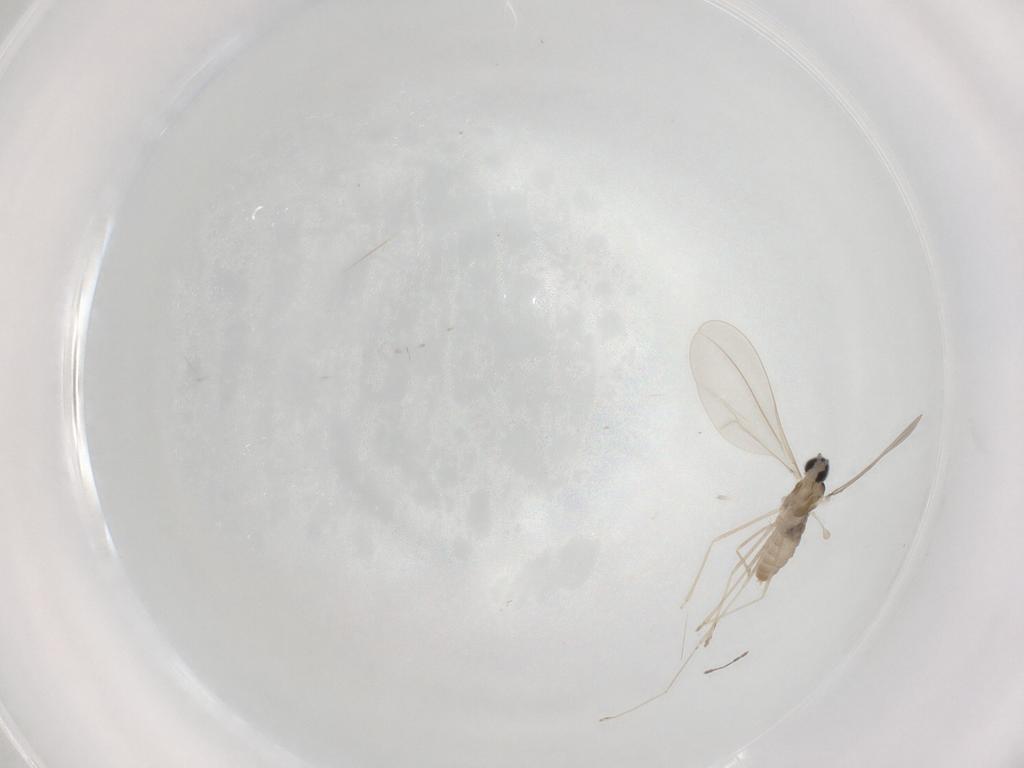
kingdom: Animalia
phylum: Arthropoda
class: Insecta
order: Diptera
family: Cecidomyiidae
